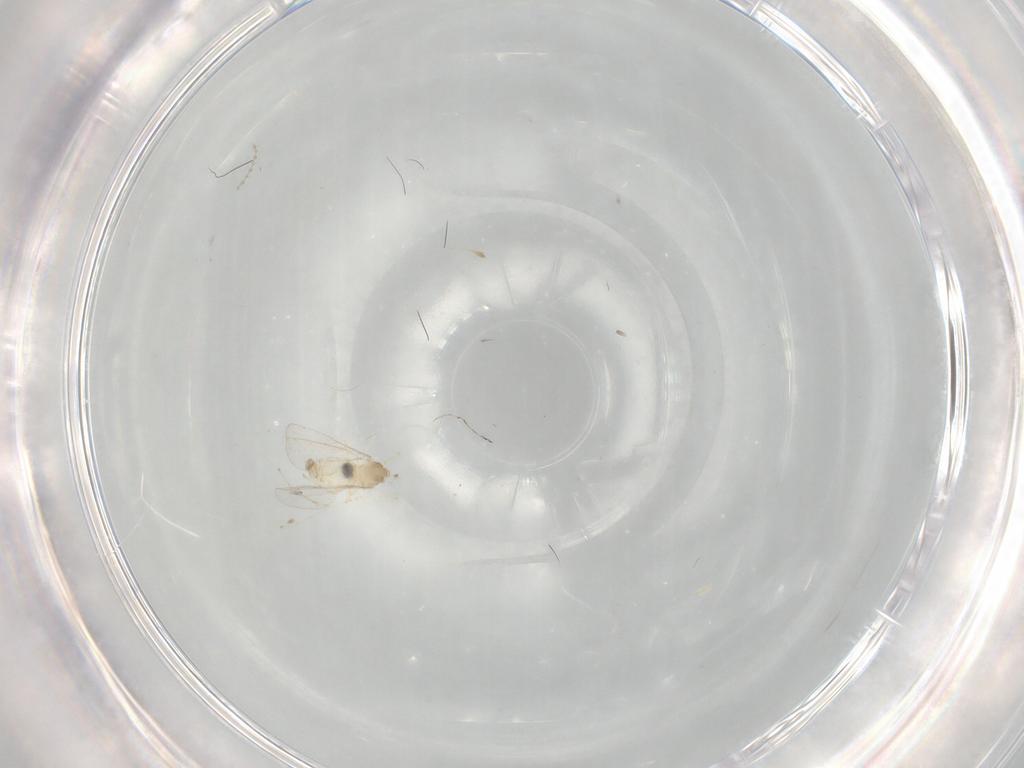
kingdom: Animalia
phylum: Arthropoda
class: Insecta
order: Diptera
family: Cecidomyiidae
